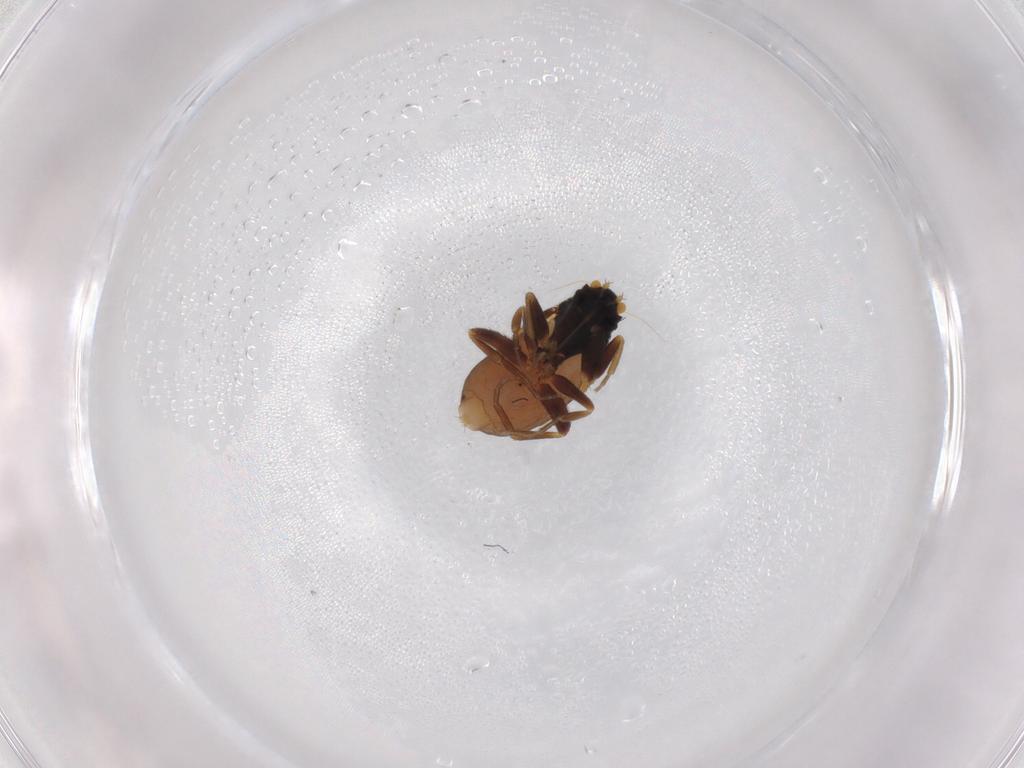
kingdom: Animalia
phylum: Arthropoda
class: Insecta
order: Diptera
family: Phoridae
